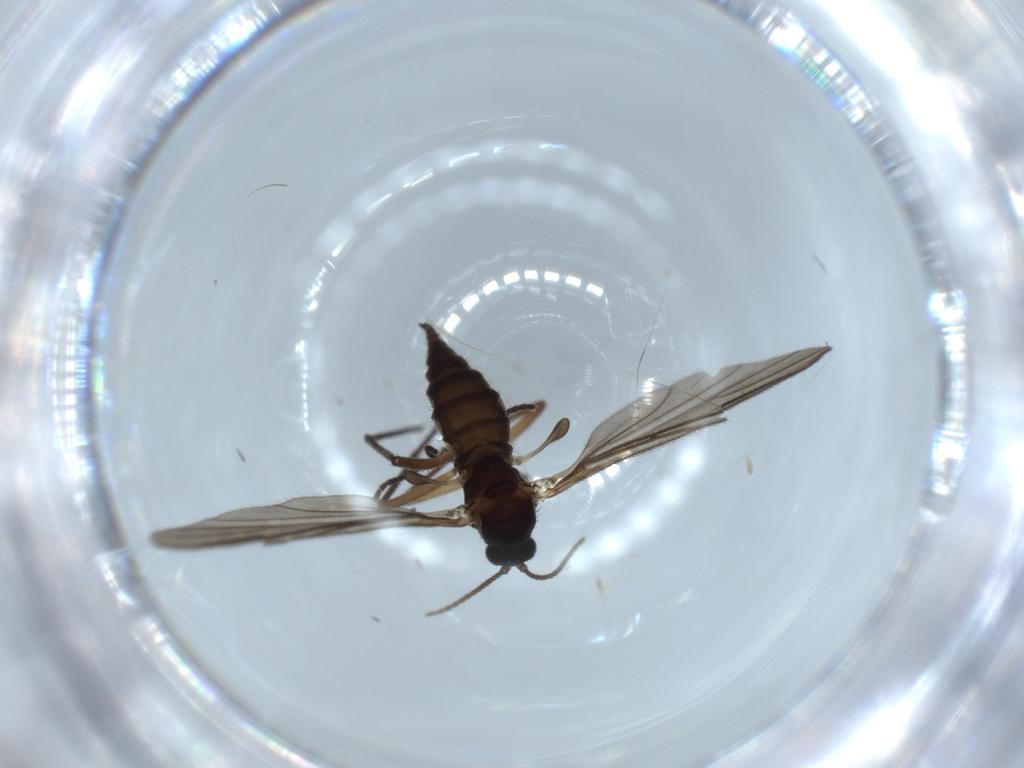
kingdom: Animalia
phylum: Arthropoda
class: Insecta
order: Diptera
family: Sciaridae
